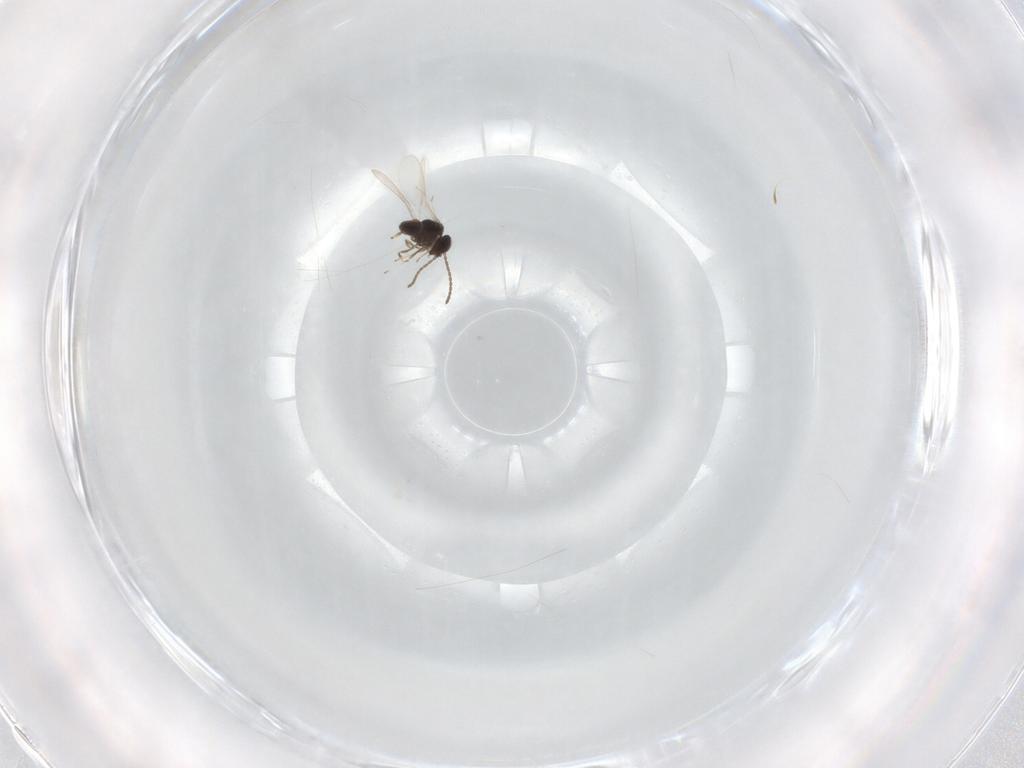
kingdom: Animalia
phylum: Arthropoda
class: Insecta
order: Hymenoptera
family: Scelionidae
